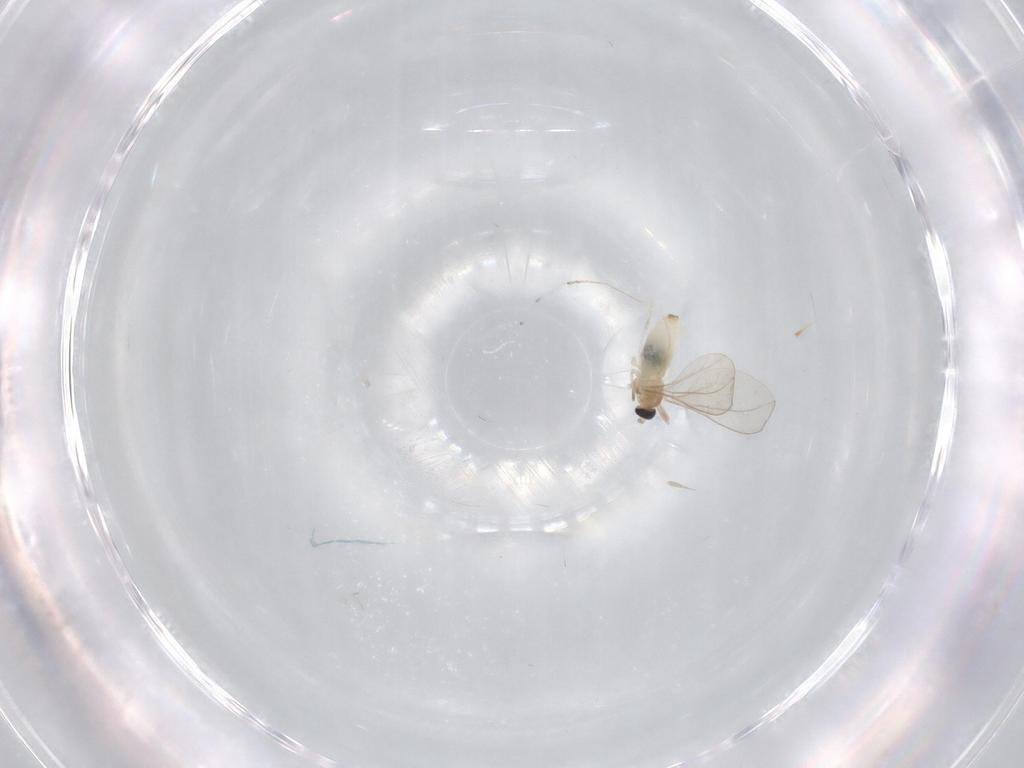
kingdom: Animalia
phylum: Arthropoda
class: Insecta
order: Diptera
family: Cecidomyiidae
